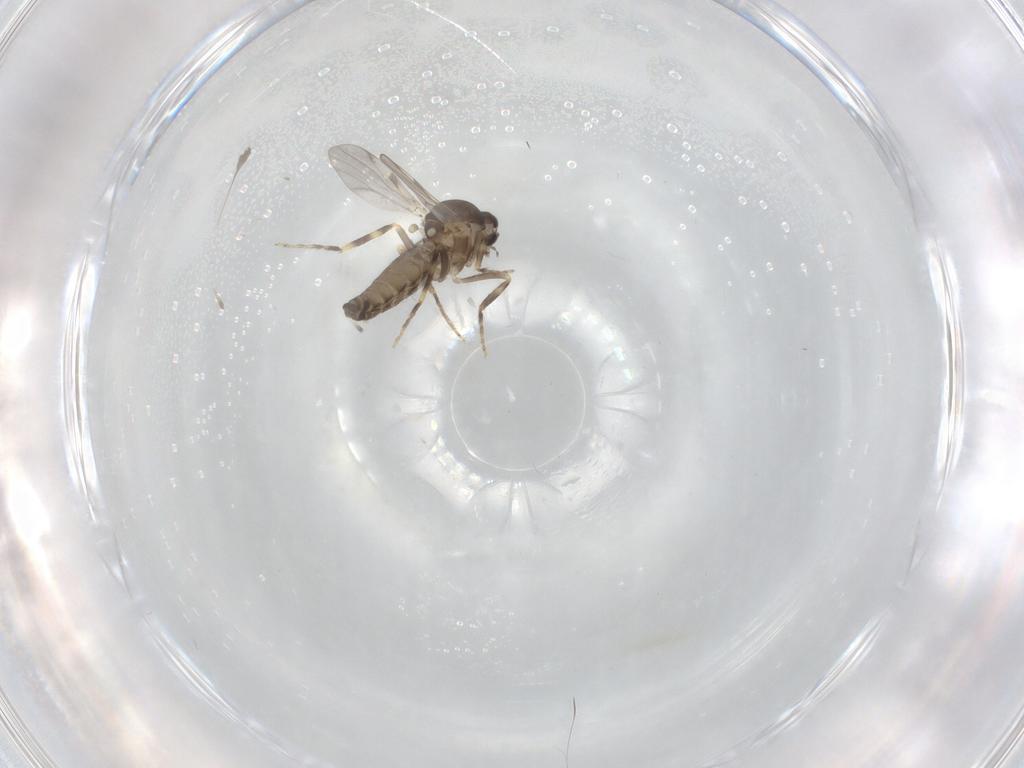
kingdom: Animalia
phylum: Arthropoda
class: Insecta
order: Diptera
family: Ceratopogonidae
